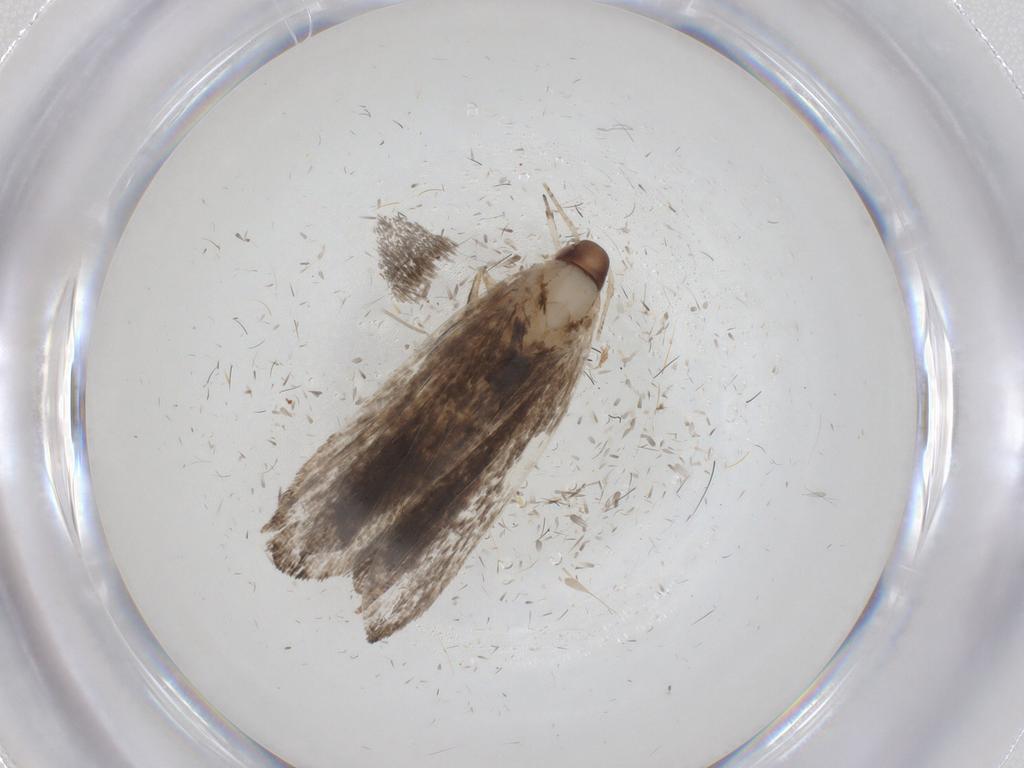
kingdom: Animalia
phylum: Arthropoda
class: Insecta
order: Lepidoptera
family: Gelechiidae
